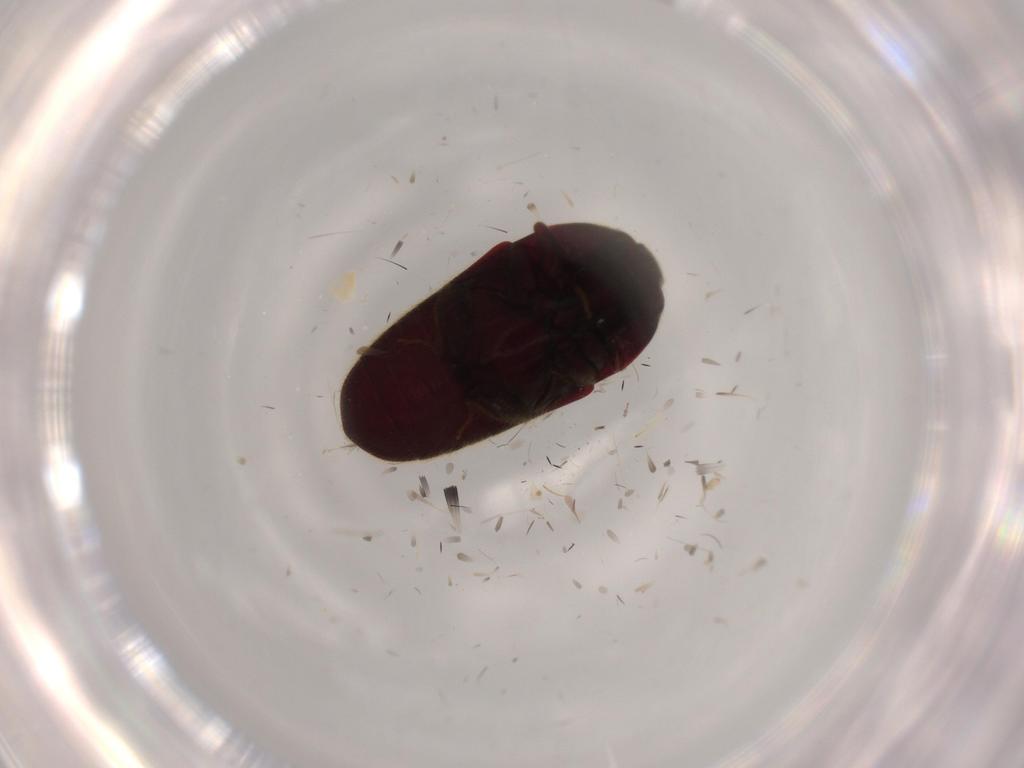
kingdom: Animalia
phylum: Arthropoda
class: Insecta
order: Coleoptera
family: Throscidae
